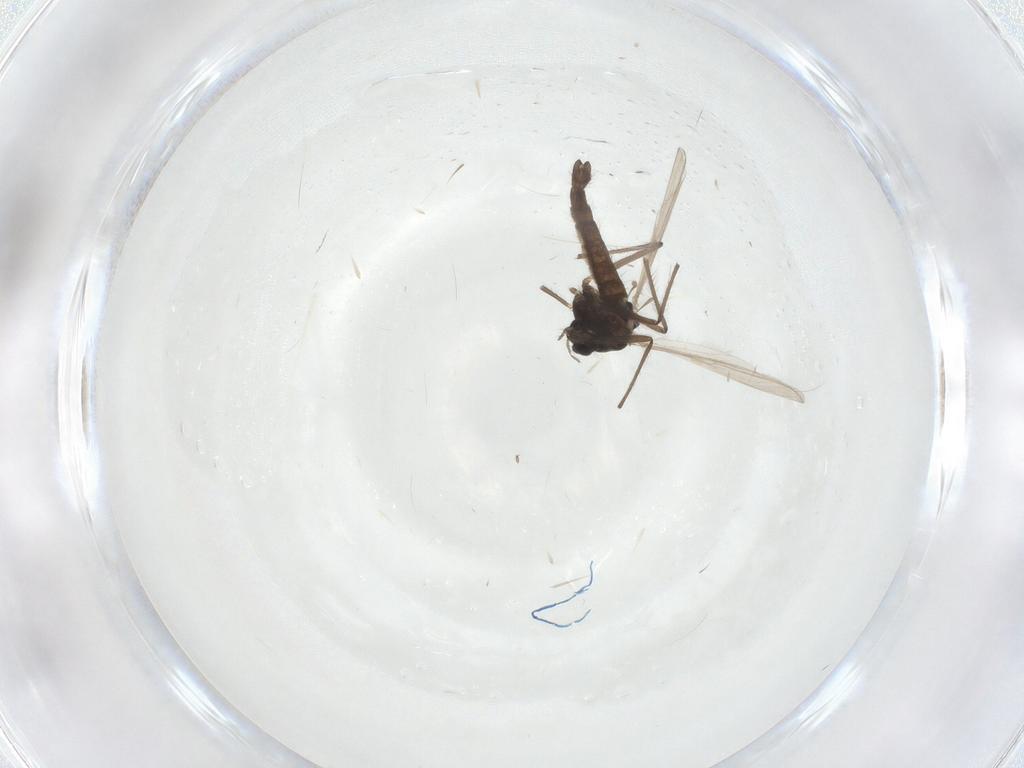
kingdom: Animalia
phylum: Arthropoda
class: Insecta
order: Diptera
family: Chironomidae
